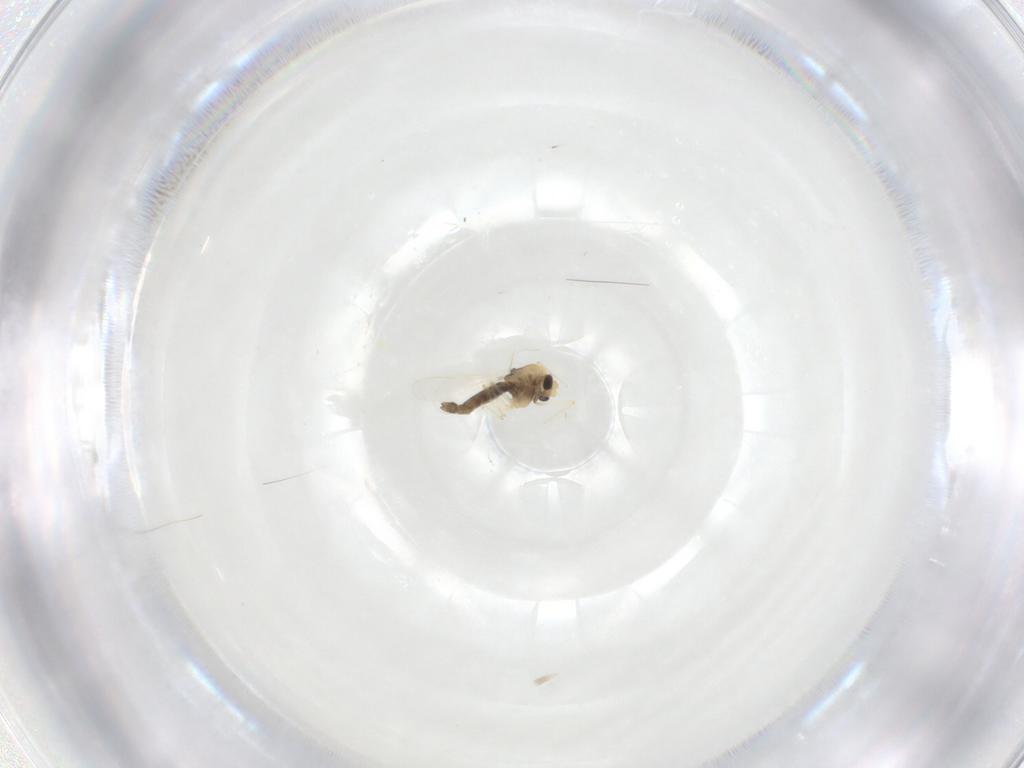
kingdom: Animalia
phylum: Arthropoda
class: Insecta
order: Diptera
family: Chironomidae
